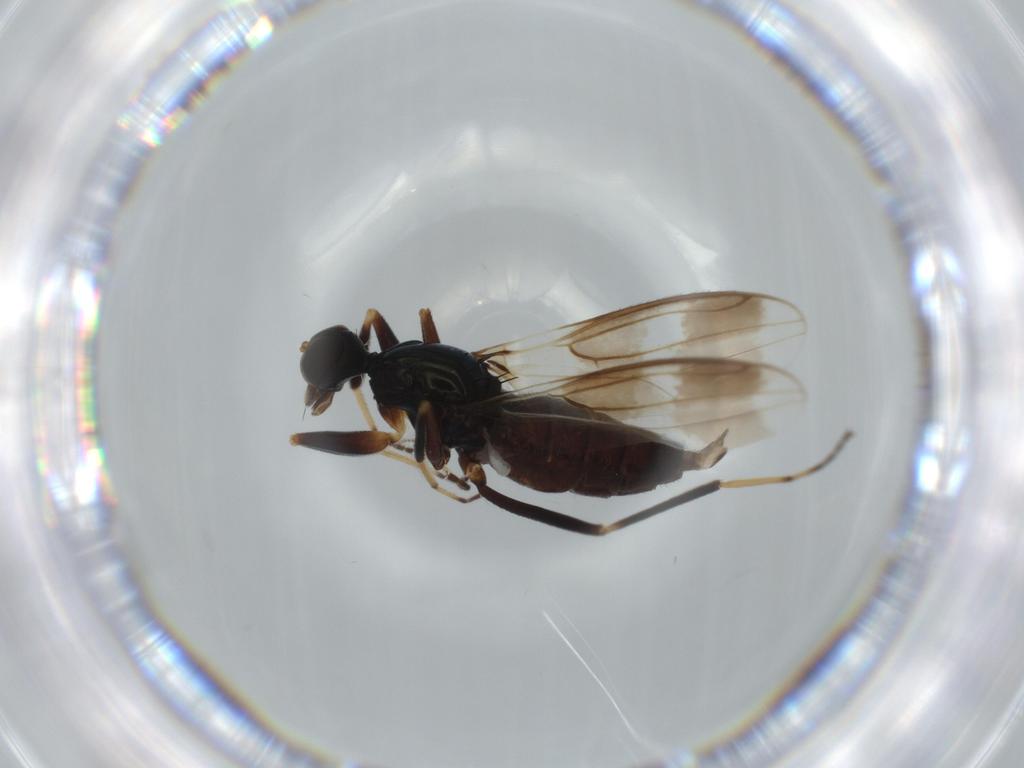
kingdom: Animalia
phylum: Arthropoda
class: Insecta
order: Diptera
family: Hybotidae
